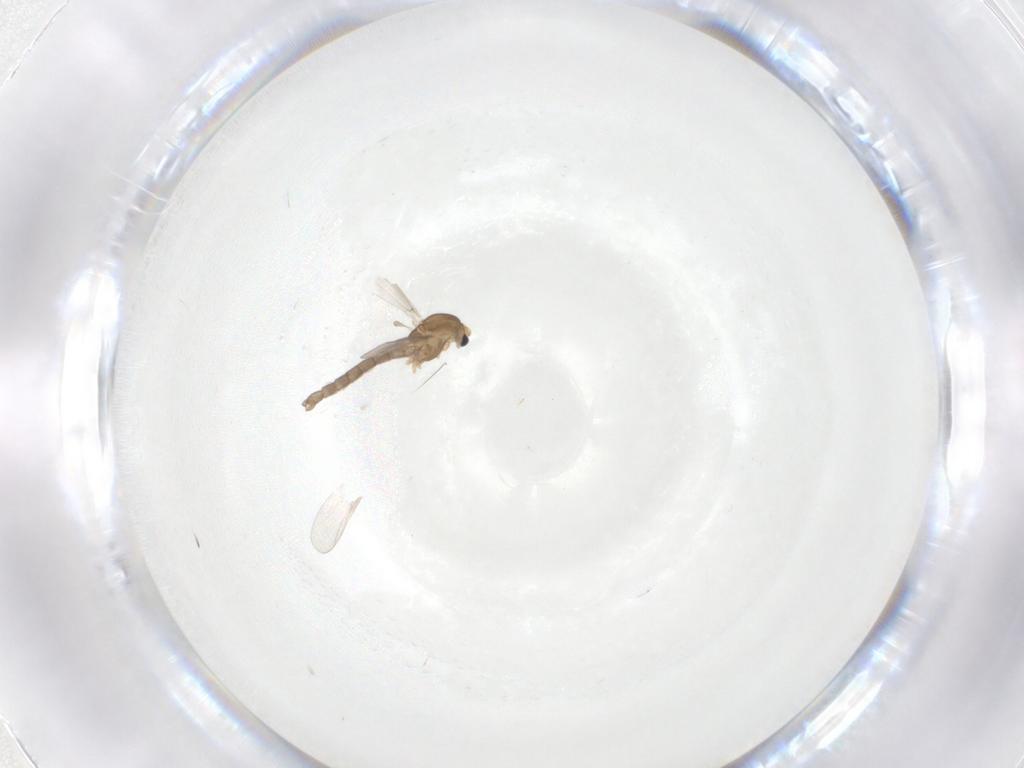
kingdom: Animalia
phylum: Arthropoda
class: Insecta
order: Diptera
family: Chironomidae
